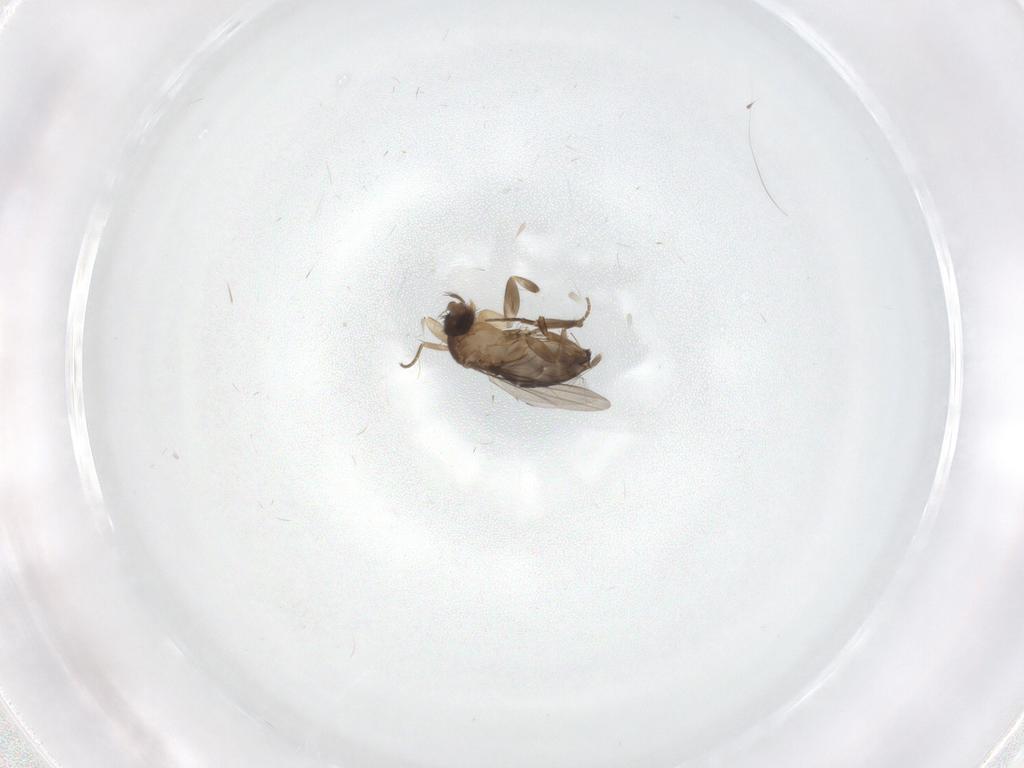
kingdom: Animalia
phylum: Arthropoda
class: Insecta
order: Diptera
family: Phoridae
